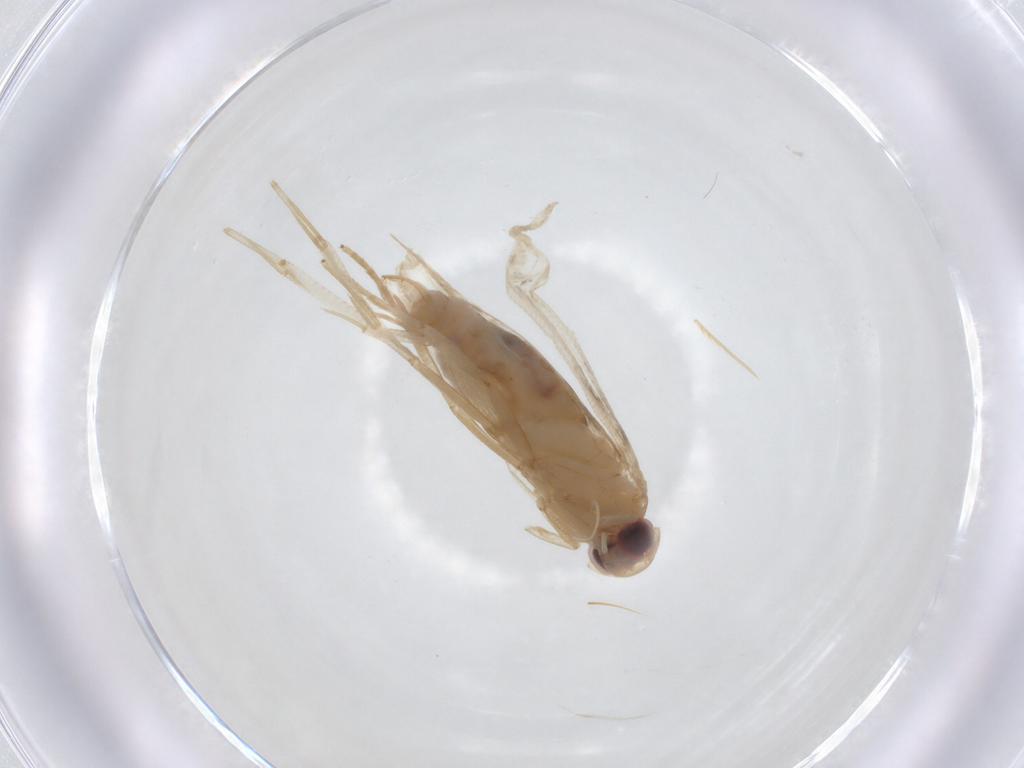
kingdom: Animalia
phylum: Arthropoda
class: Insecta
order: Lepidoptera
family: Cosmopterigidae
